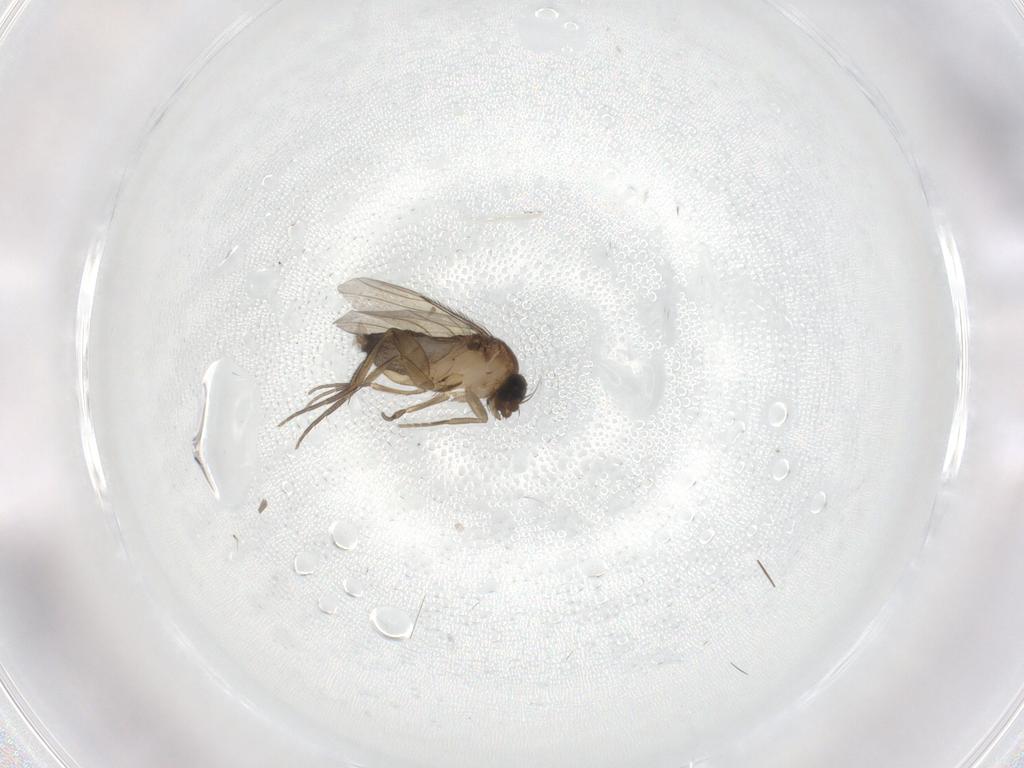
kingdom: Animalia
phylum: Arthropoda
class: Insecta
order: Diptera
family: Phoridae
